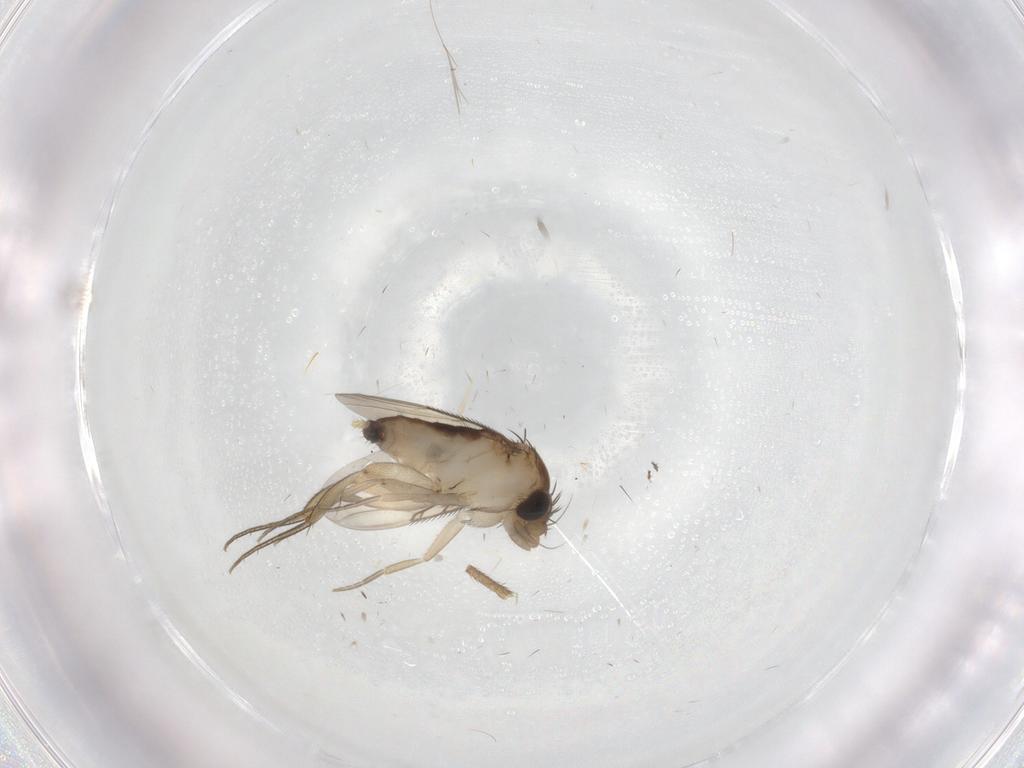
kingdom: Animalia
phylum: Arthropoda
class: Insecta
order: Diptera
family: Phoridae
